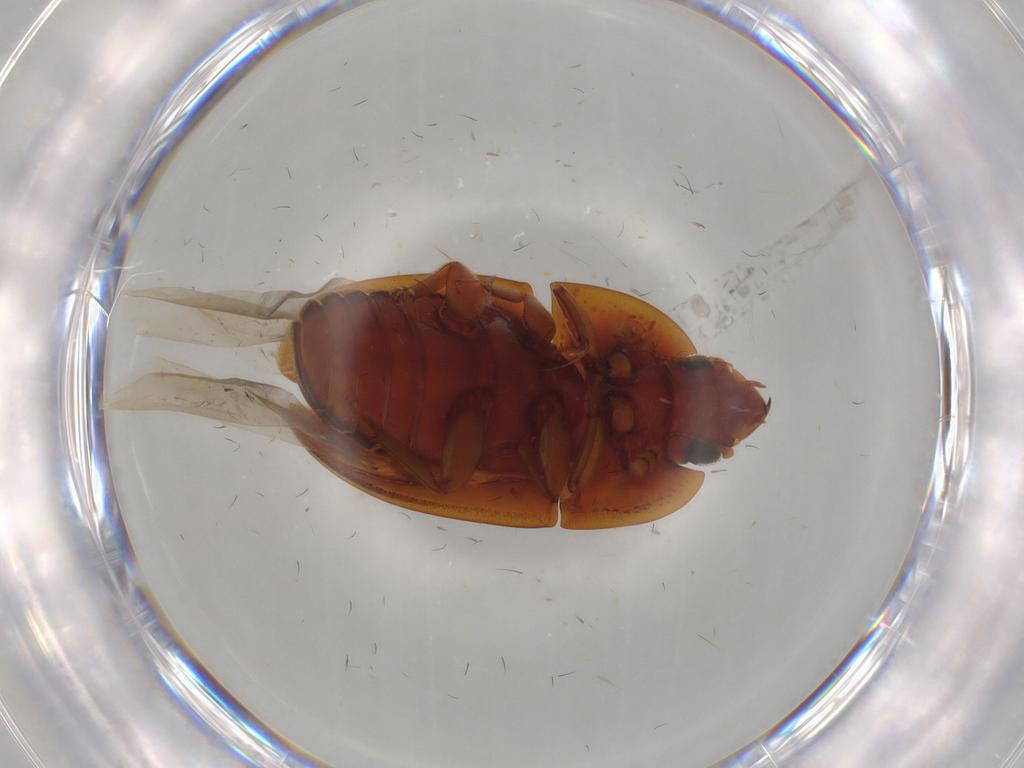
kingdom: Animalia
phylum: Arthropoda
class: Insecta
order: Coleoptera
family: Nitidulidae
